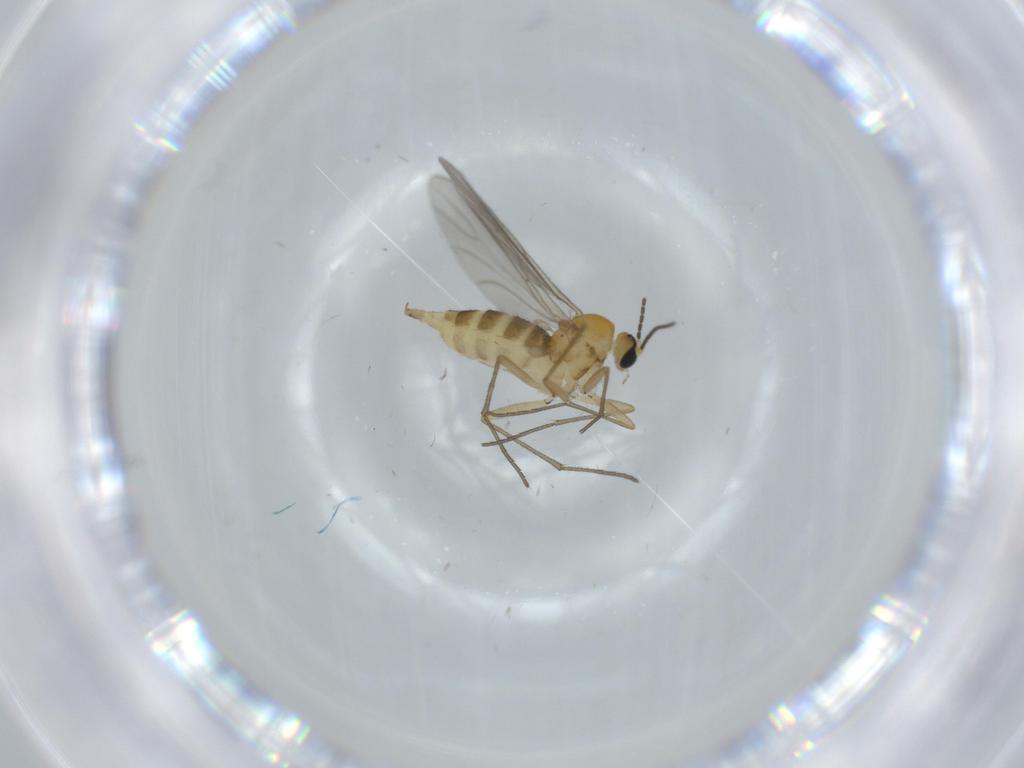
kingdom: Animalia
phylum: Arthropoda
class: Insecta
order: Diptera
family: Sciaridae
